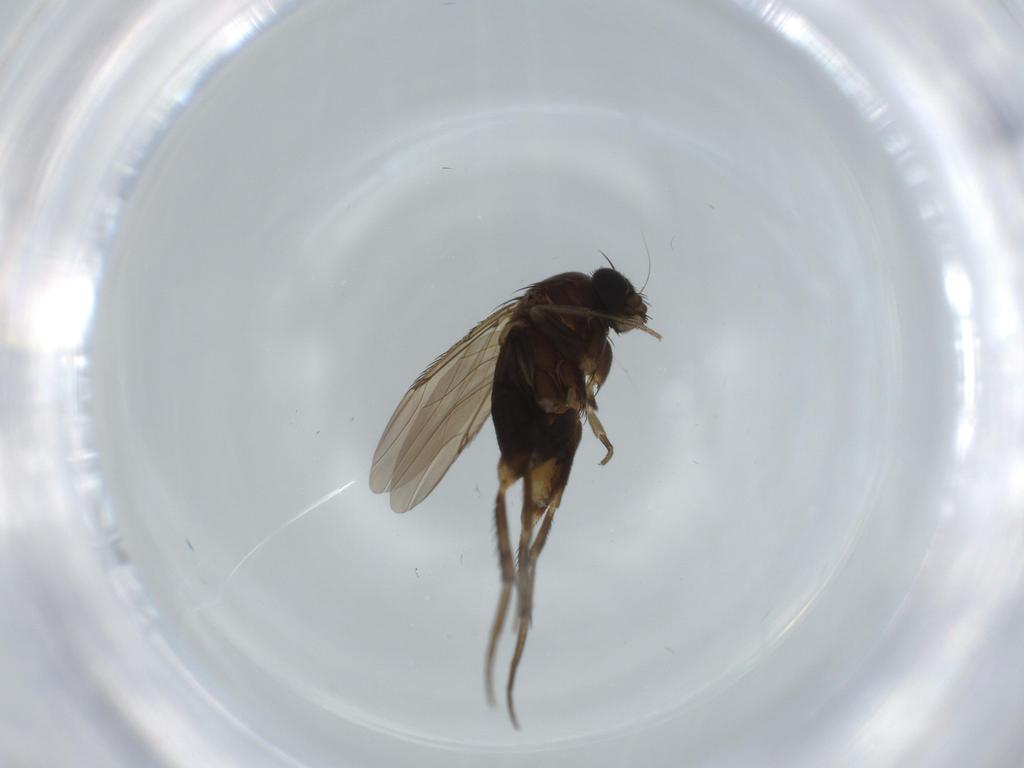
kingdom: Animalia
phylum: Arthropoda
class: Insecta
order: Diptera
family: Phoridae
